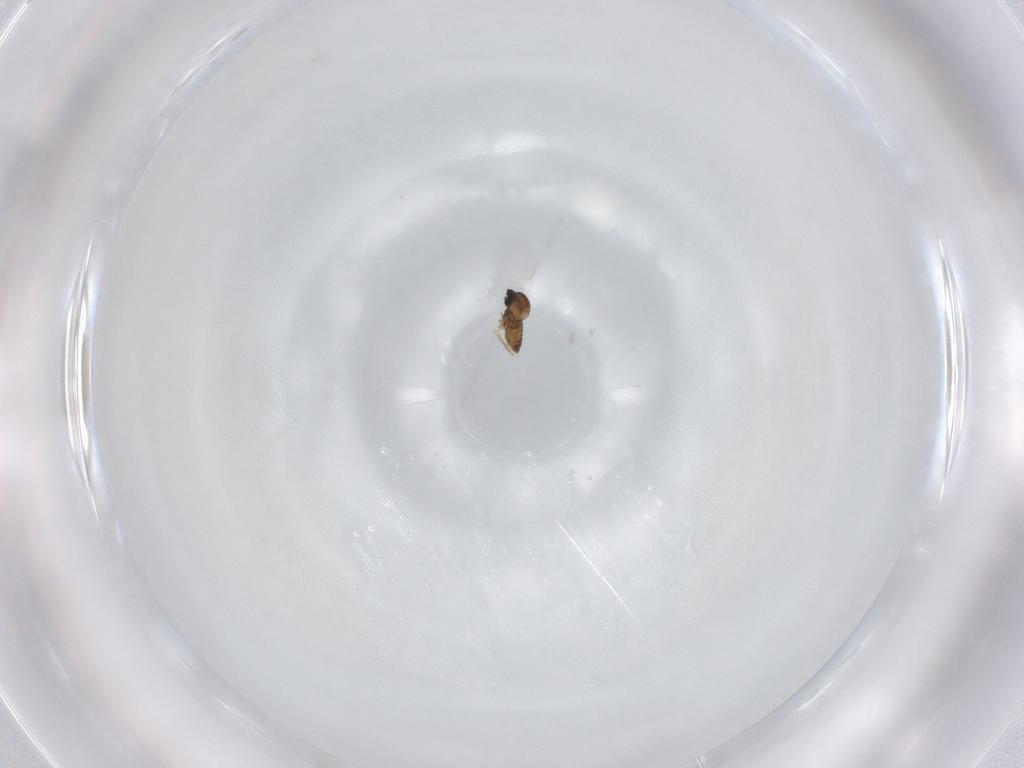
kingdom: Animalia
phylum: Arthropoda
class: Insecta
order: Diptera
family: Cecidomyiidae
